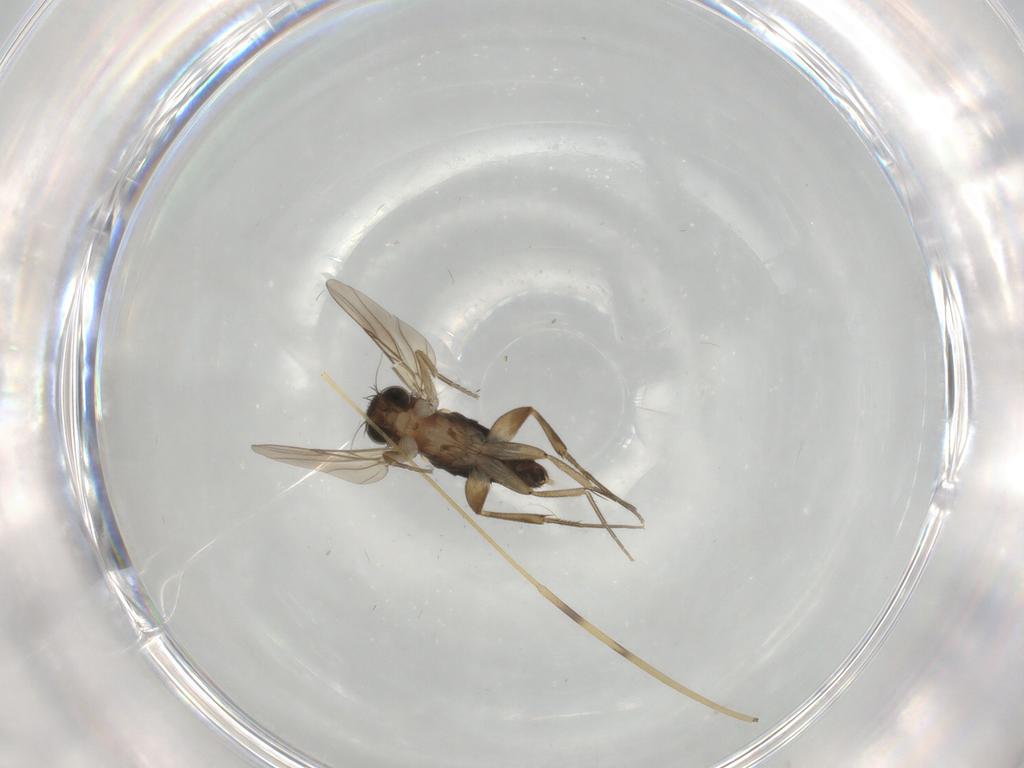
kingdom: Animalia
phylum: Arthropoda
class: Insecta
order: Diptera
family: Phoridae
